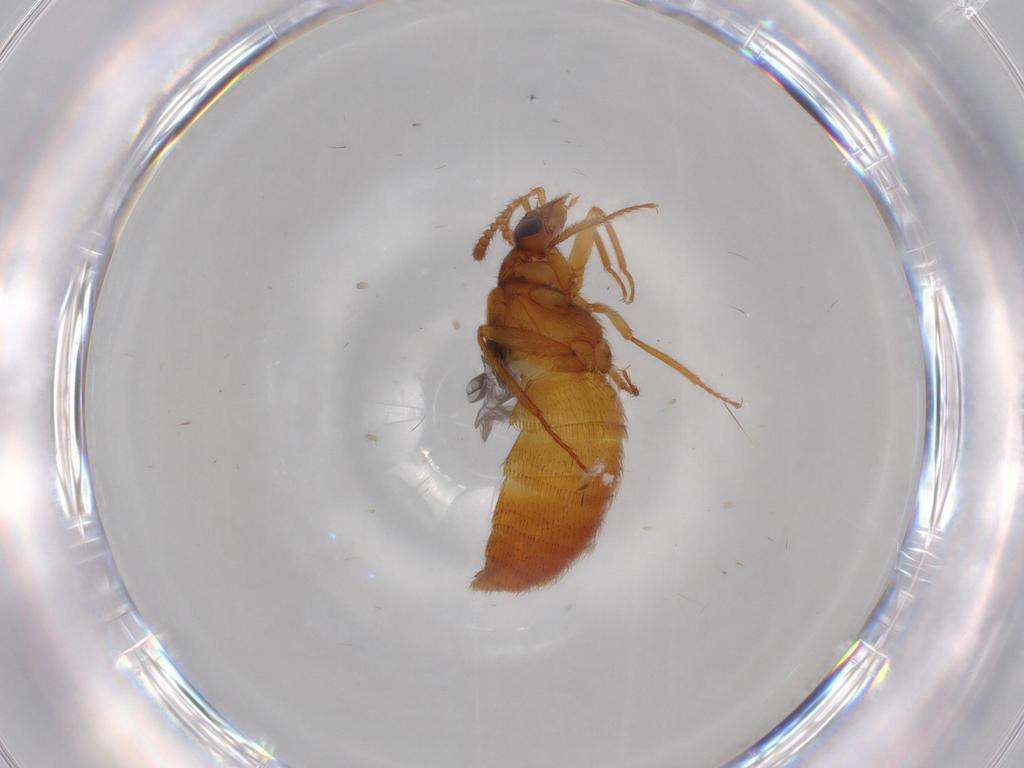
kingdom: Animalia
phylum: Arthropoda
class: Insecta
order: Coleoptera
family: Staphylinidae
